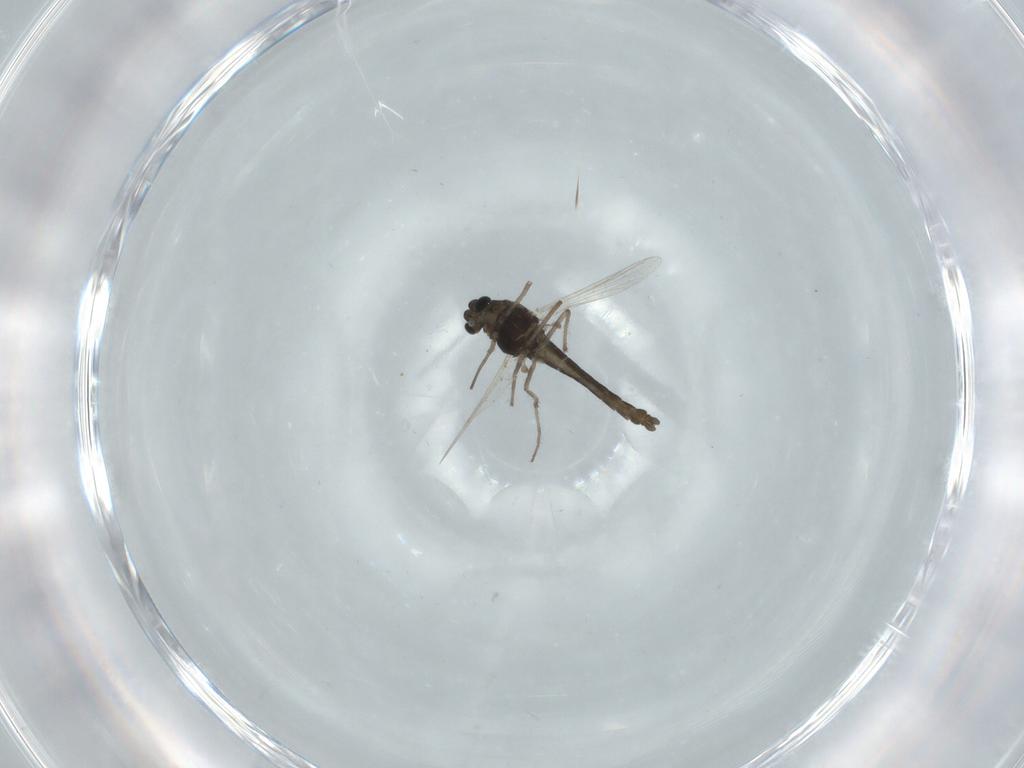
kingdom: Animalia
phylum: Arthropoda
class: Insecta
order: Diptera
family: Chironomidae
